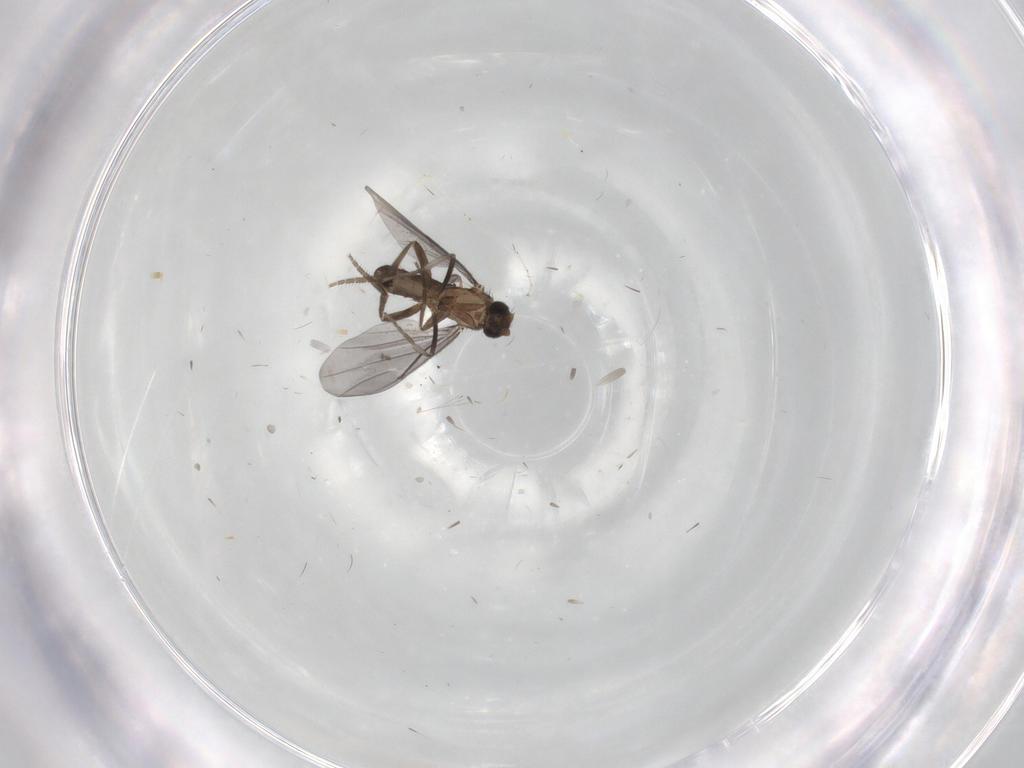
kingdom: Animalia
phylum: Arthropoda
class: Insecta
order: Diptera
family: Phoridae
